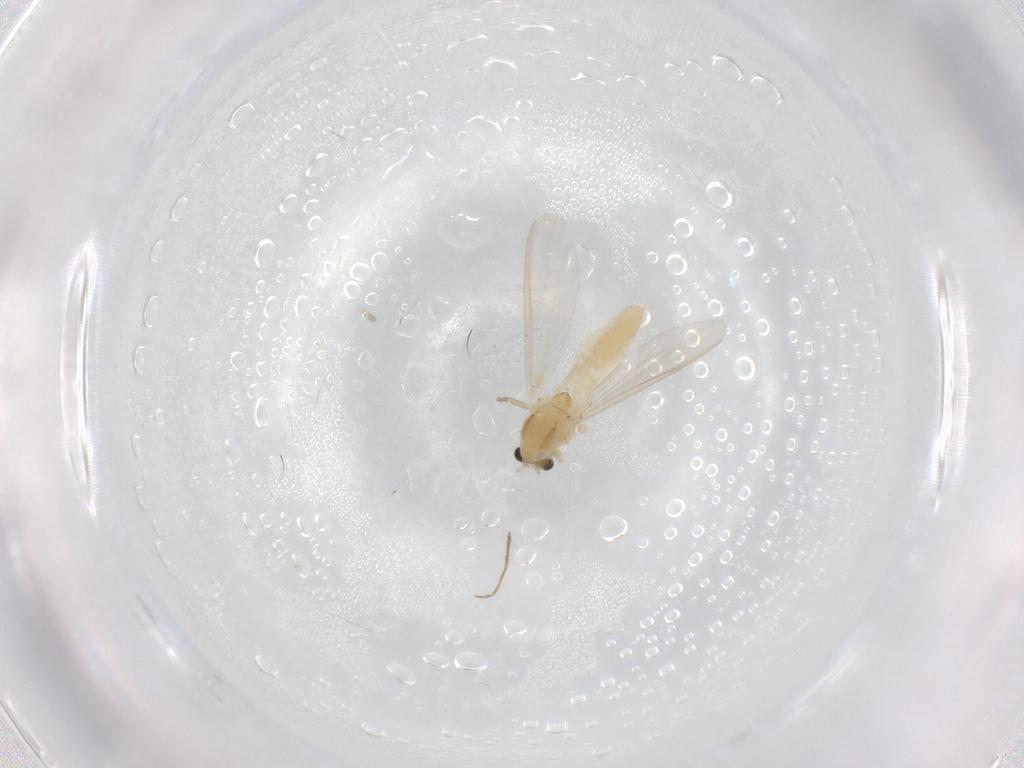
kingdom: Animalia
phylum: Arthropoda
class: Insecta
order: Diptera
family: Chironomidae
